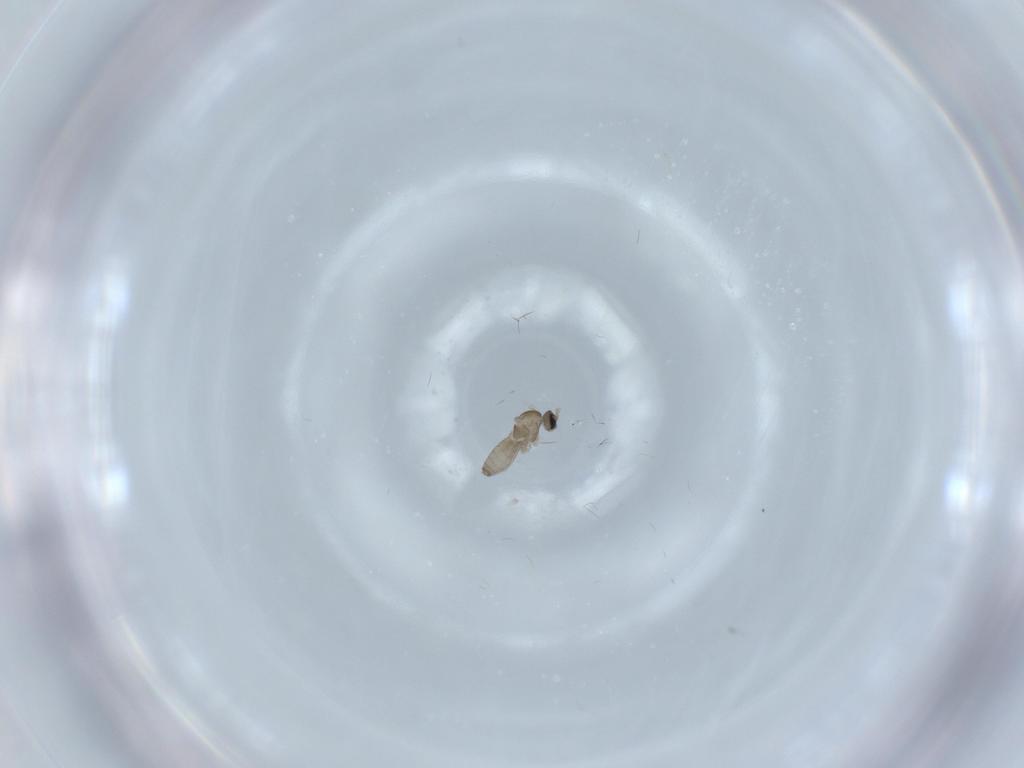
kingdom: Animalia
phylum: Arthropoda
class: Insecta
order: Diptera
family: Cecidomyiidae
